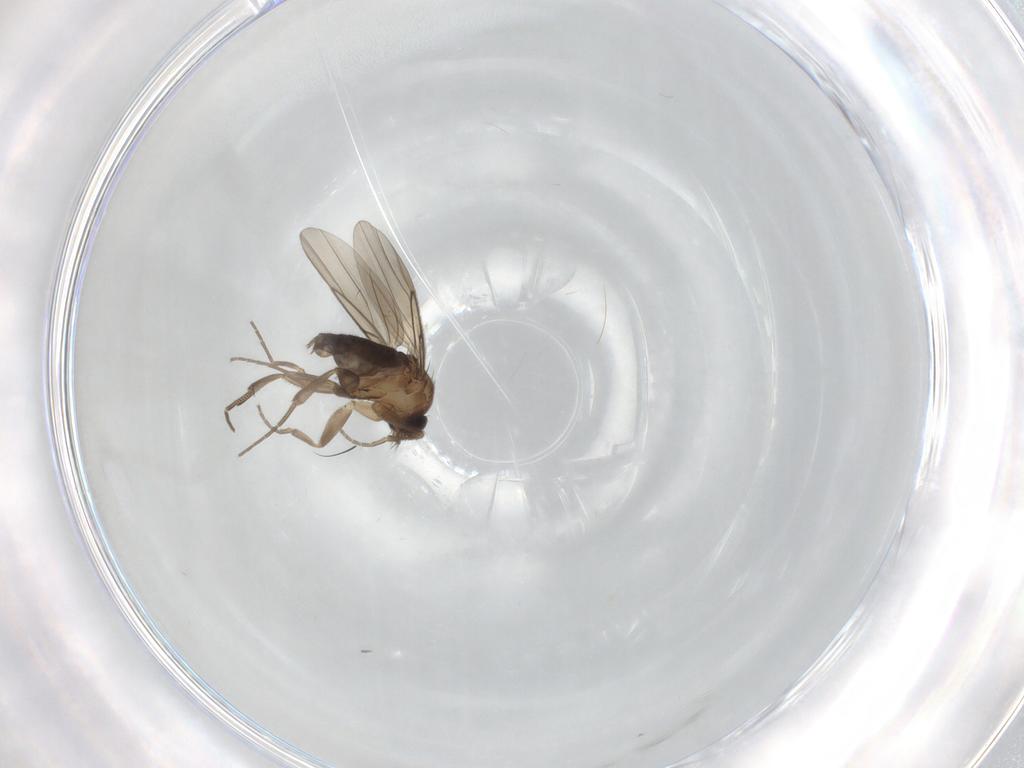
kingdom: Animalia
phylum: Arthropoda
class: Insecta
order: Diptera
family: Phoridae
